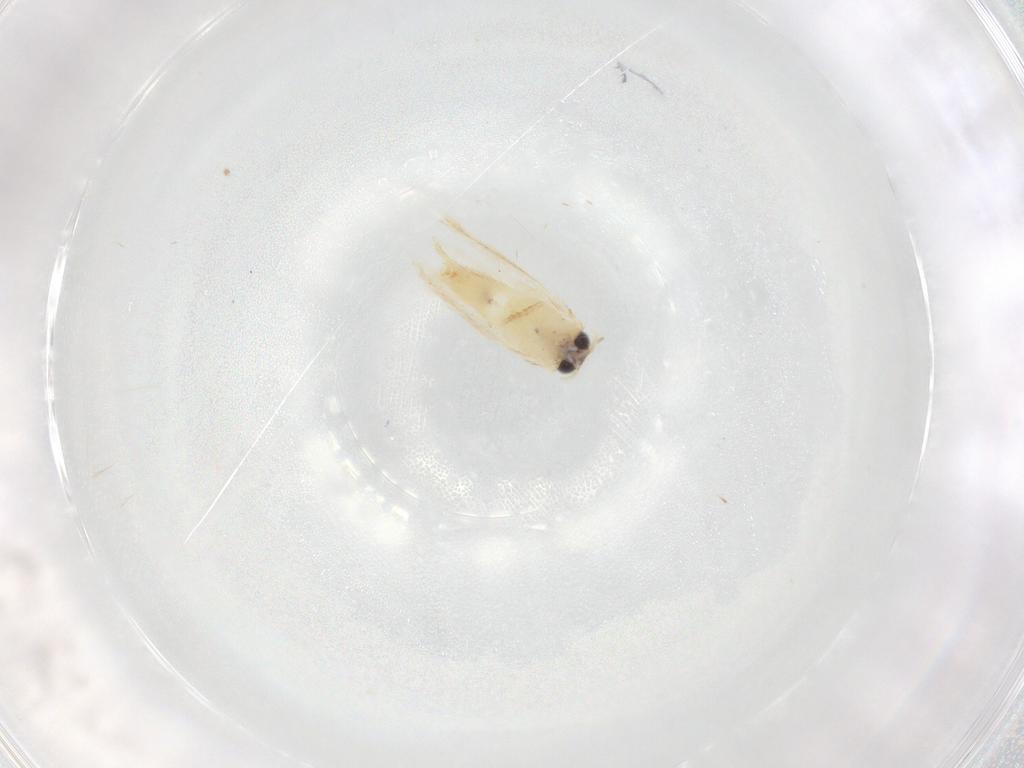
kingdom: Animalia
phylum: Arthropoda
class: Insecta
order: Lepidoptera
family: Nepticulidae
